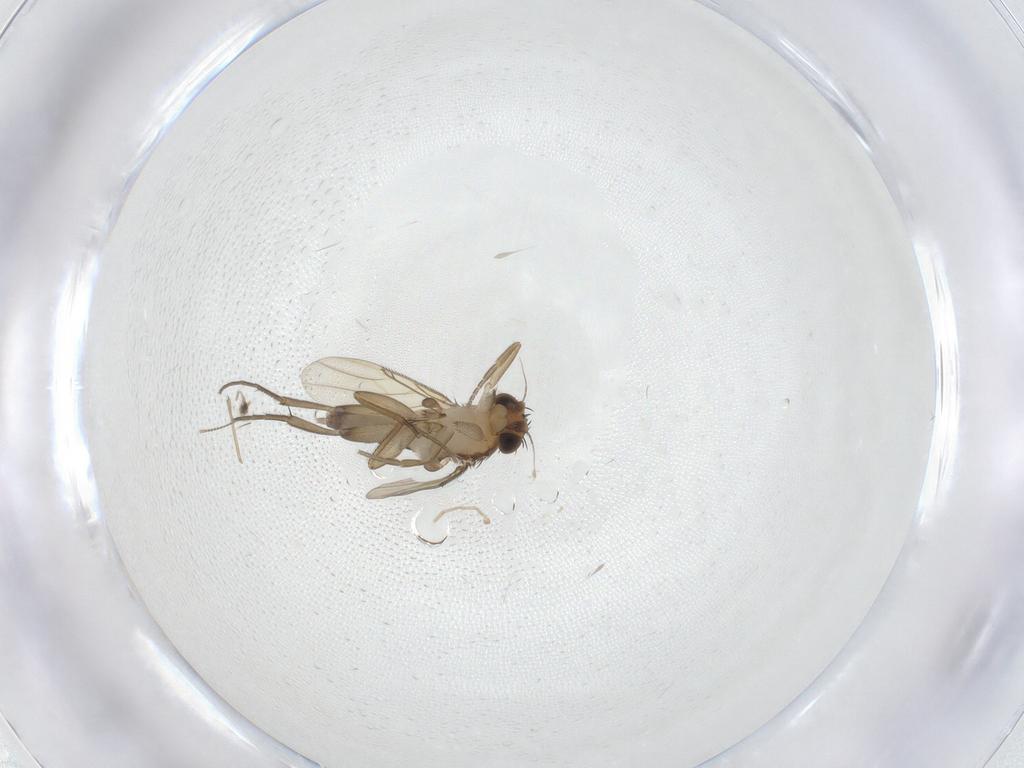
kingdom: Animalia
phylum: Arthropoda
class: Insecta
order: Diptera
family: Chironomidae
